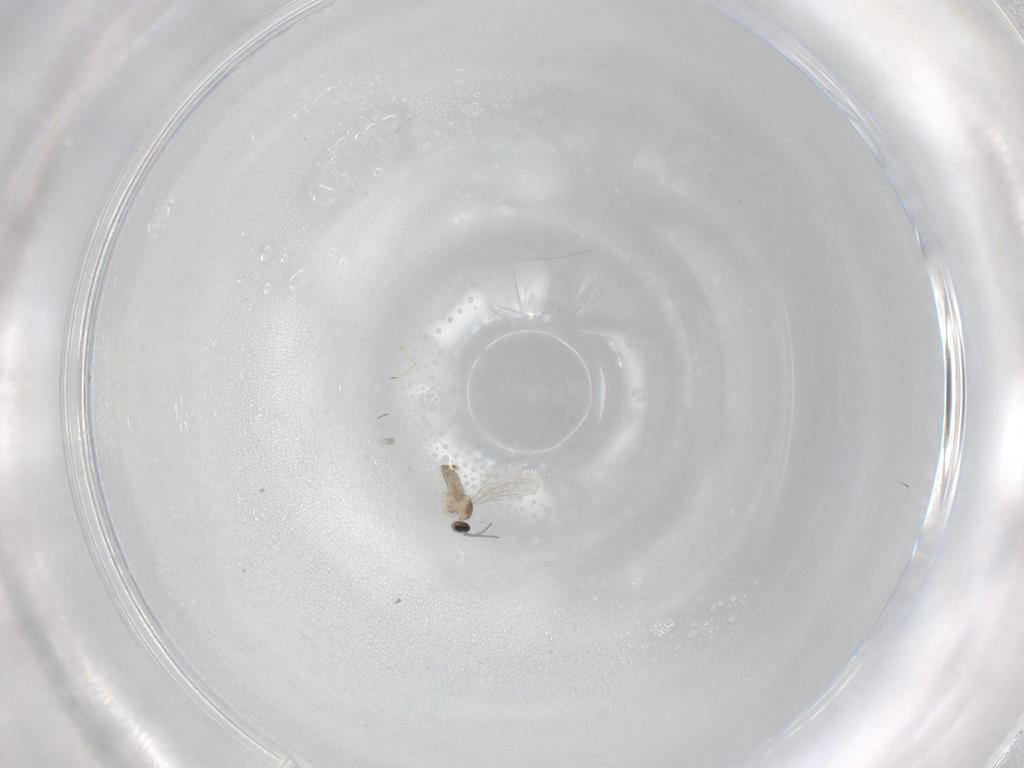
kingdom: Animalia
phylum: Arthropoda
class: Insecta
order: Diptera
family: Cecidomyiidae
